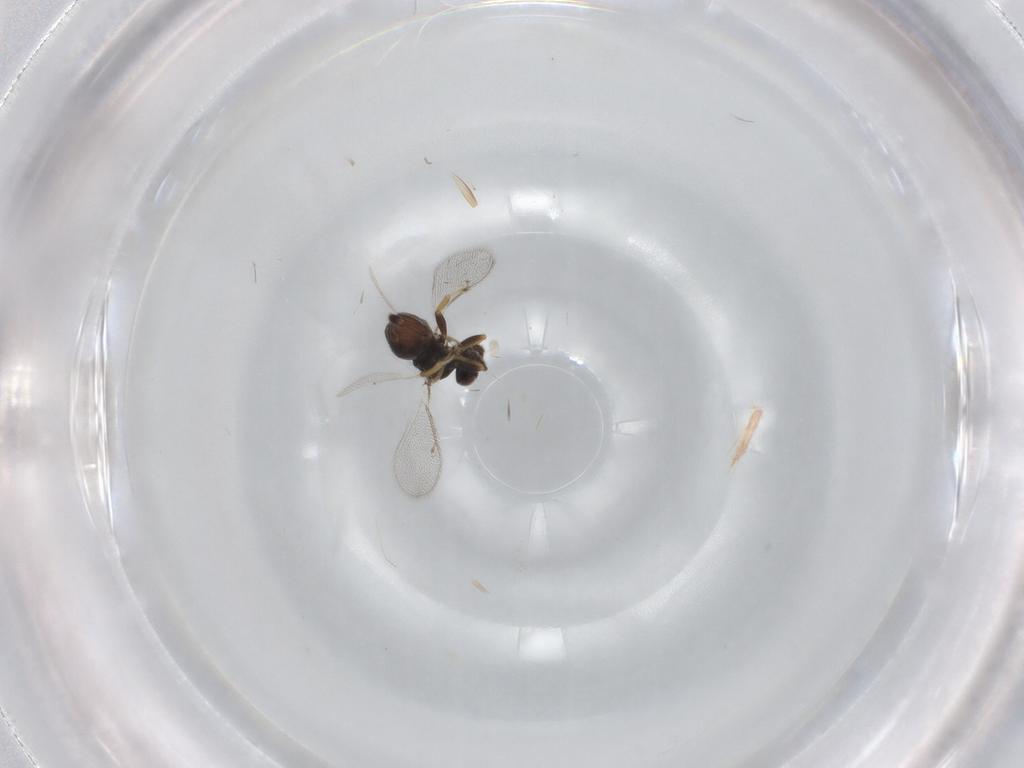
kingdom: Animalia
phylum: Arthropoda
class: Insecta
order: Hymenoptera
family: Eulophidae
